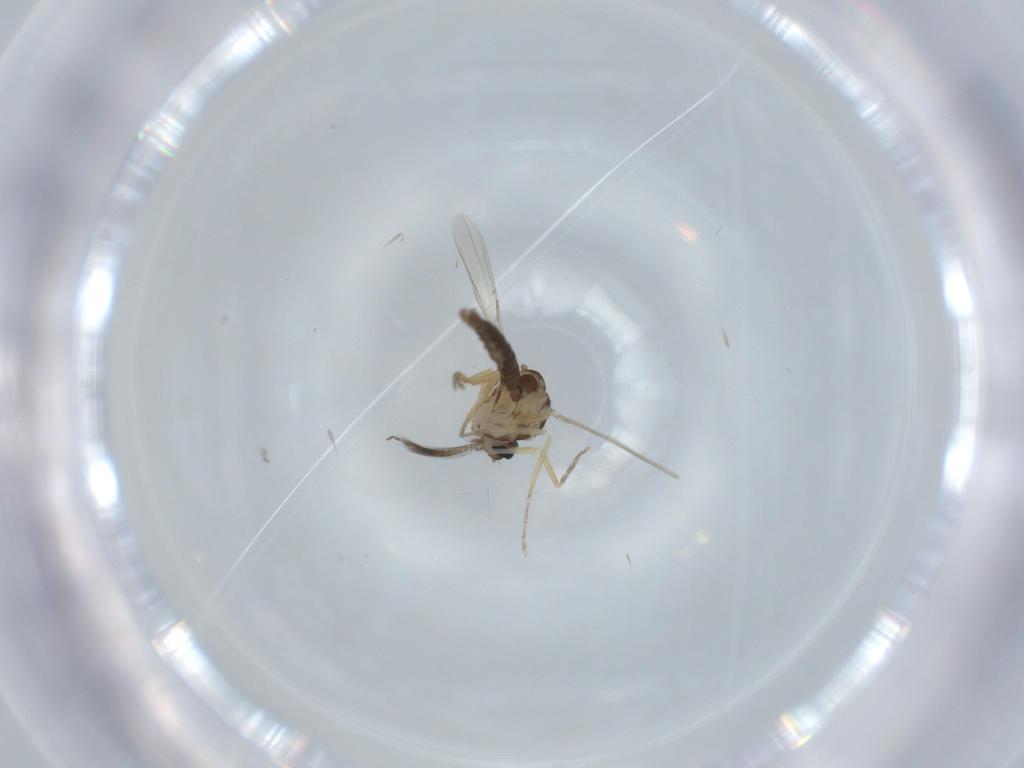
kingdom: Animalia
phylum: Arthropoda
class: Insecta
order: Diptera
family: Ceratopogonidae
